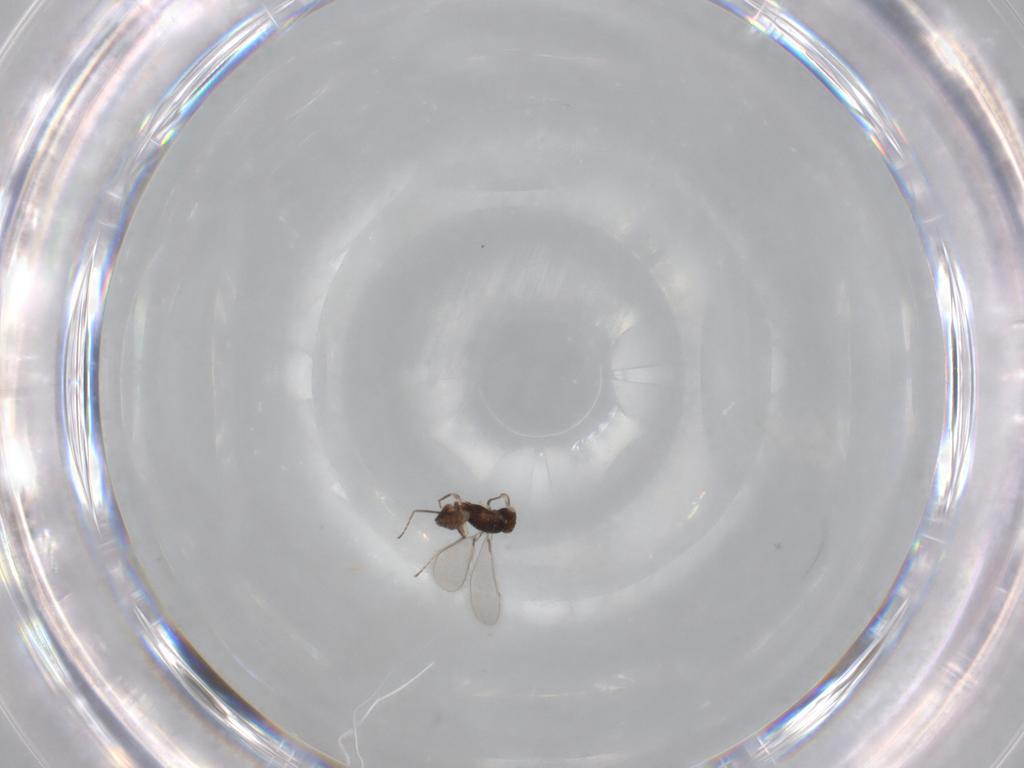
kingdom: Animalia
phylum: Arthropoda
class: Insecta
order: Hymenoptera
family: Mymaridae
